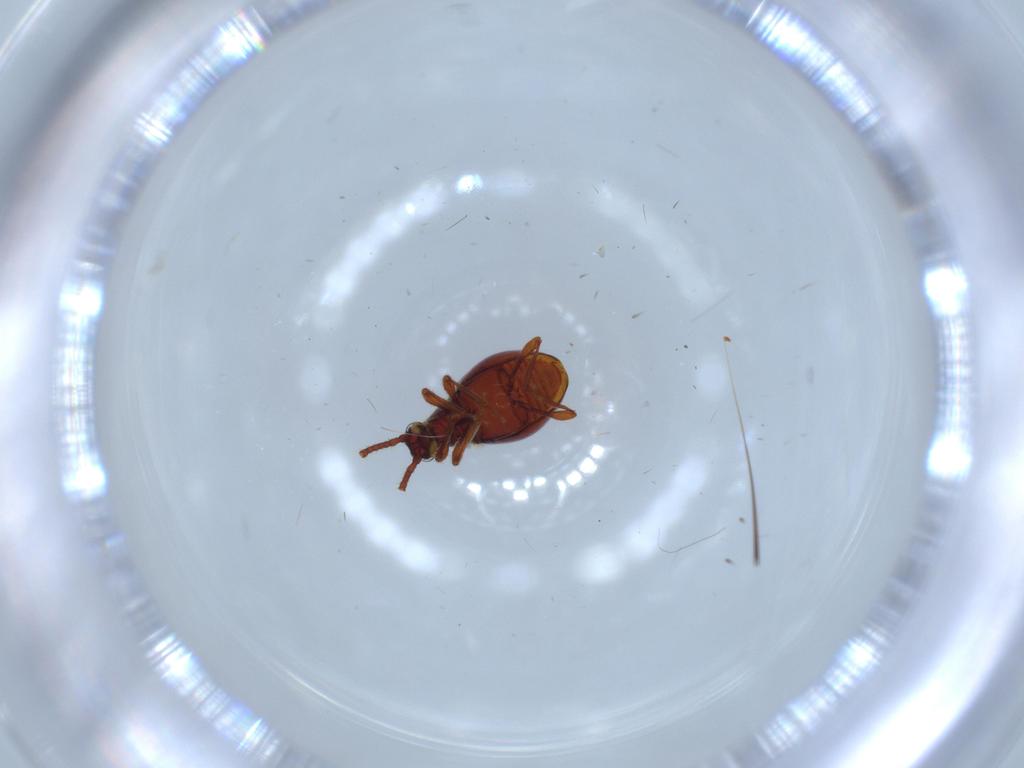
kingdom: Animalia
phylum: Arthropoda
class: Insecta
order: Coleoptera
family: Staphylinidae
